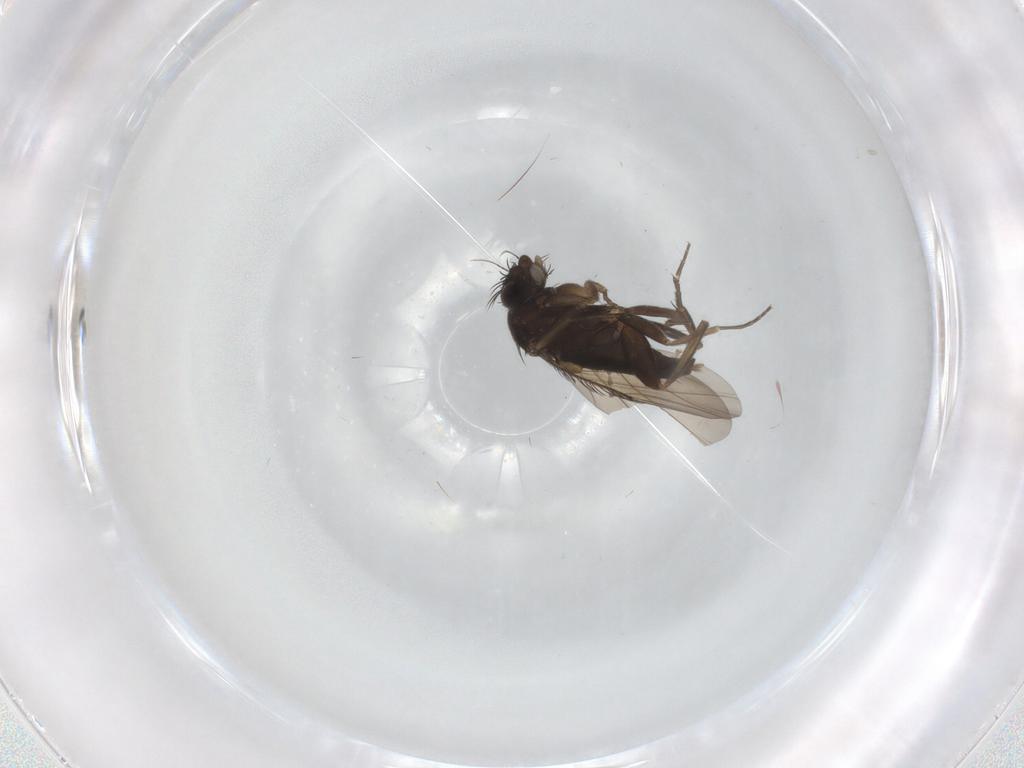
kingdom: Animalia
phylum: Arthropoda
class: Insecta
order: Diptera
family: Phoridae
